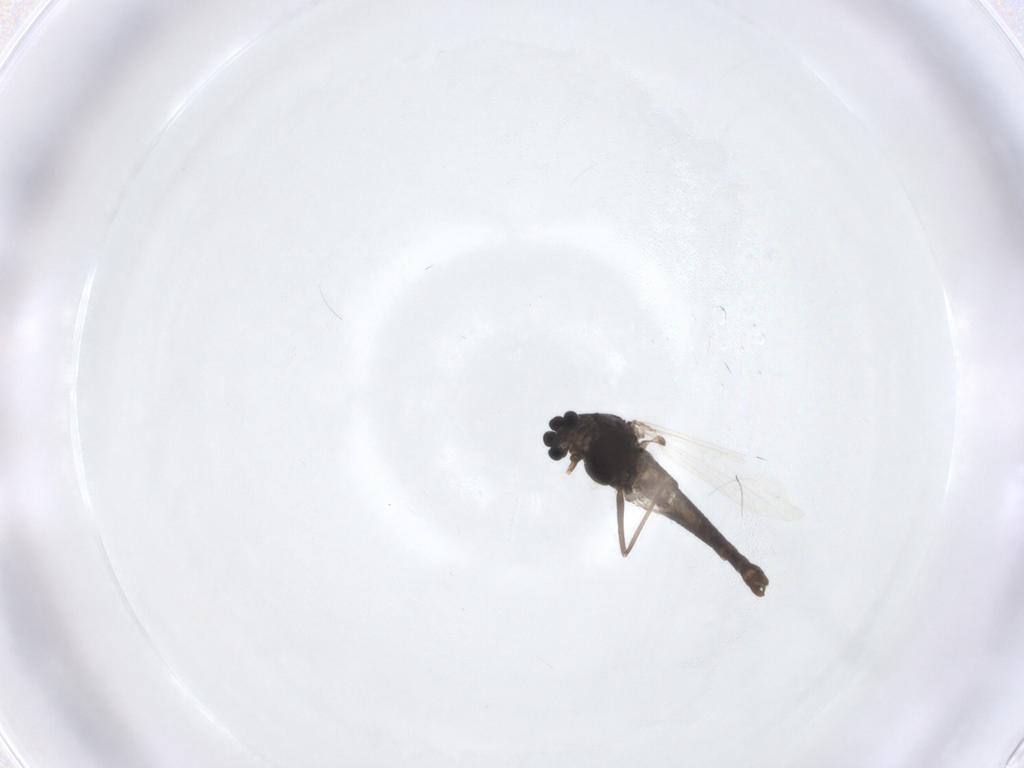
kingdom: Animalia
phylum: Arthropoda
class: Insecta
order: Diptera
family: Chironomidae
